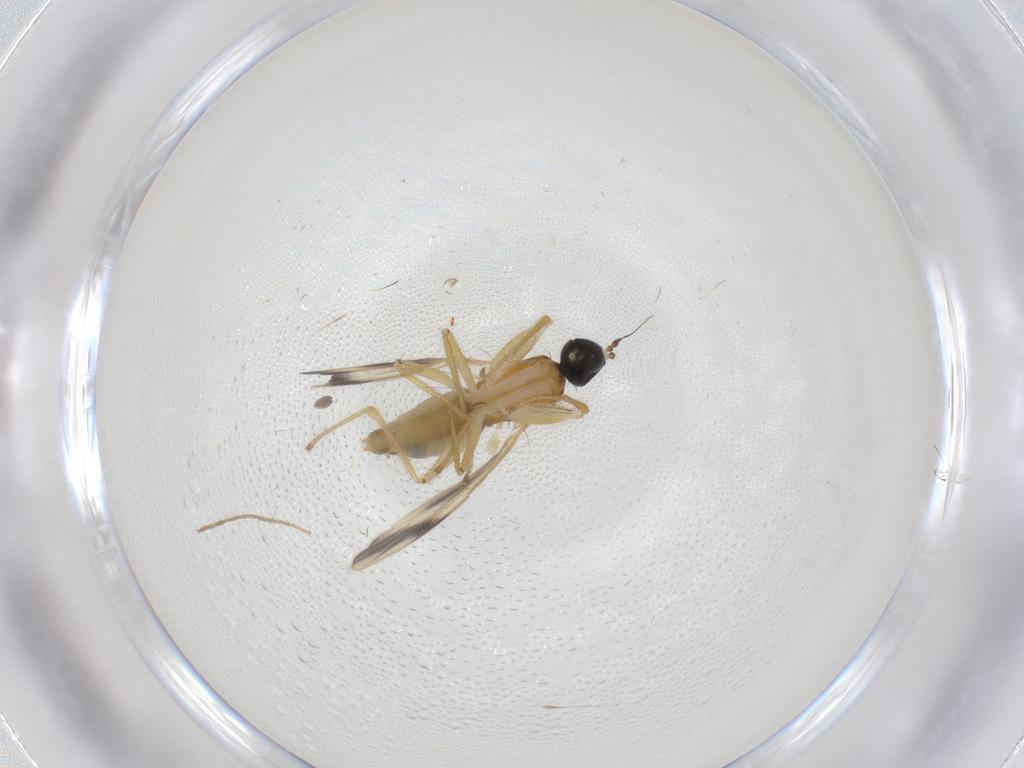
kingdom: Animalia
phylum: Arthropoda
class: Insecta
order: Diptera
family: Chironomidae
